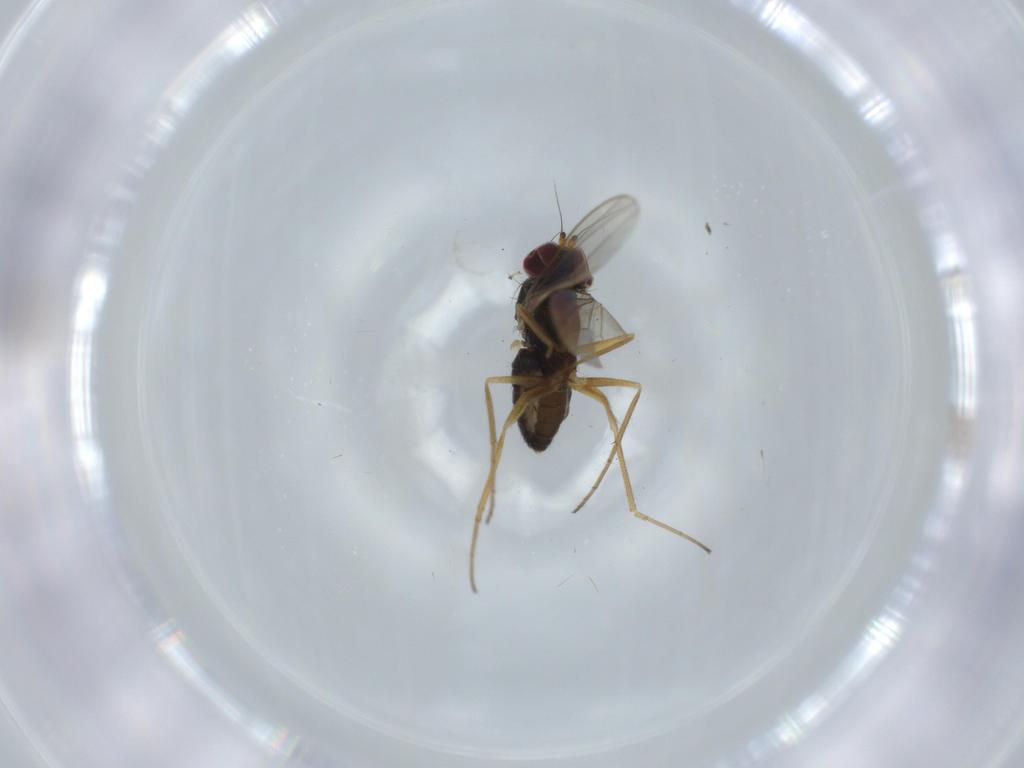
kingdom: Animalia
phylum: Arthropoda
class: Insecta
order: Diptera
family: Dolichopodidae
